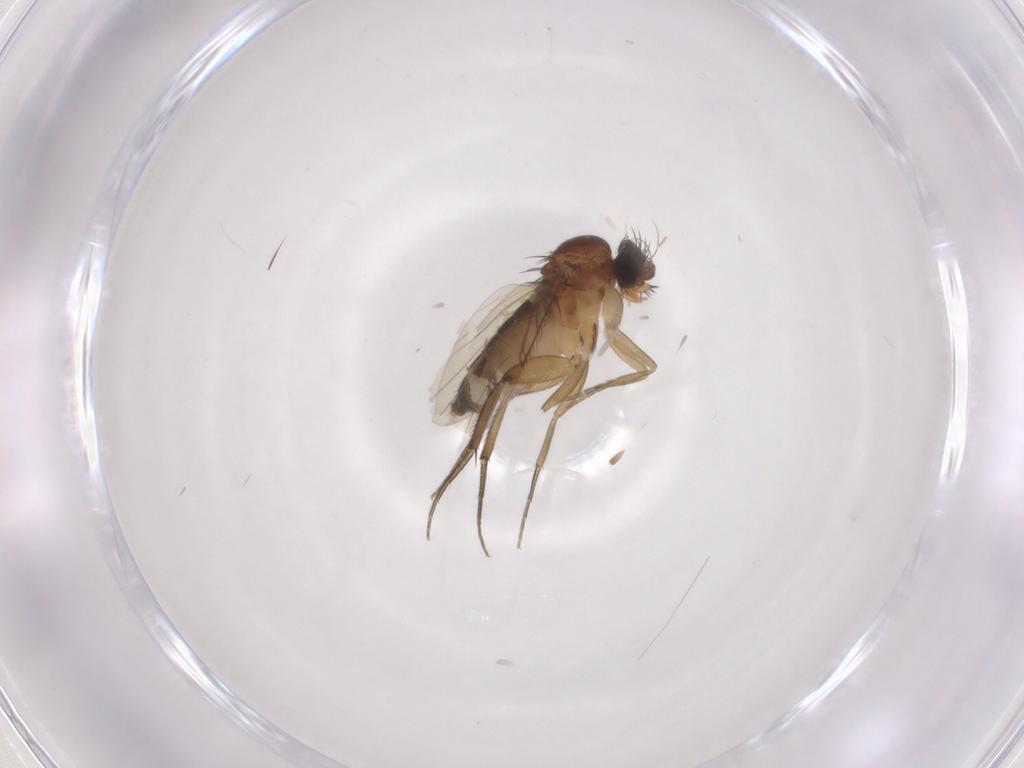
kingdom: Animalia
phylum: Arthropoda
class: Insecta
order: Diptera
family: Phoridae
